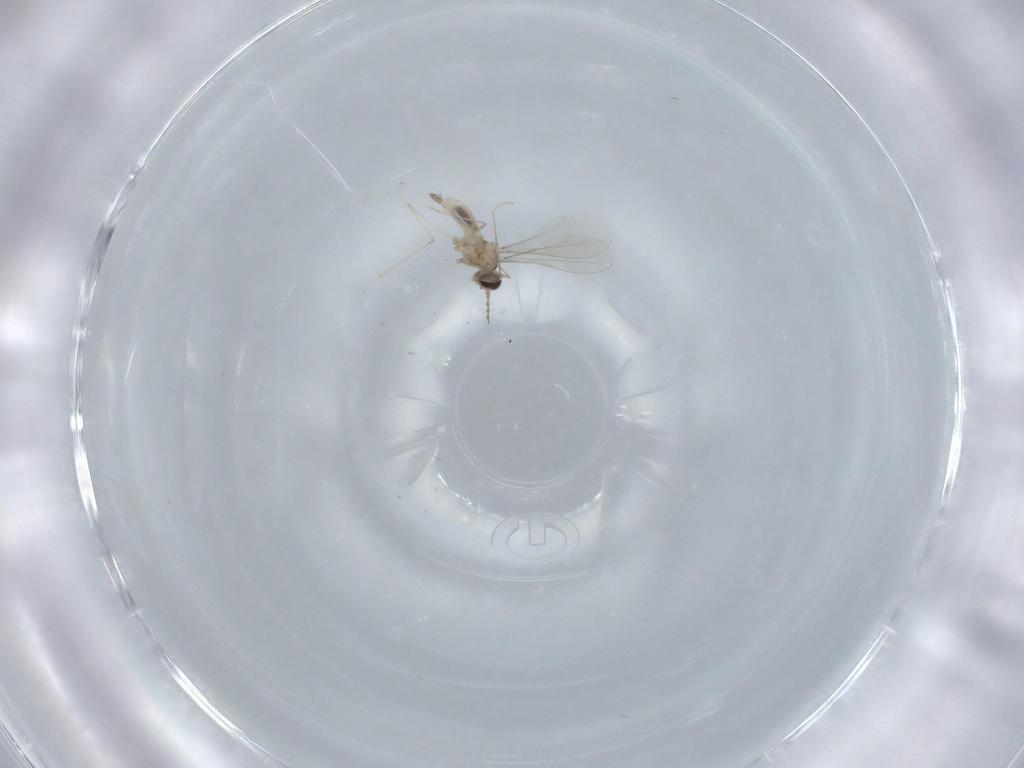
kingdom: Animalia
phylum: Arthropoda
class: Insecta
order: Diptera
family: Cecidomyiidae
